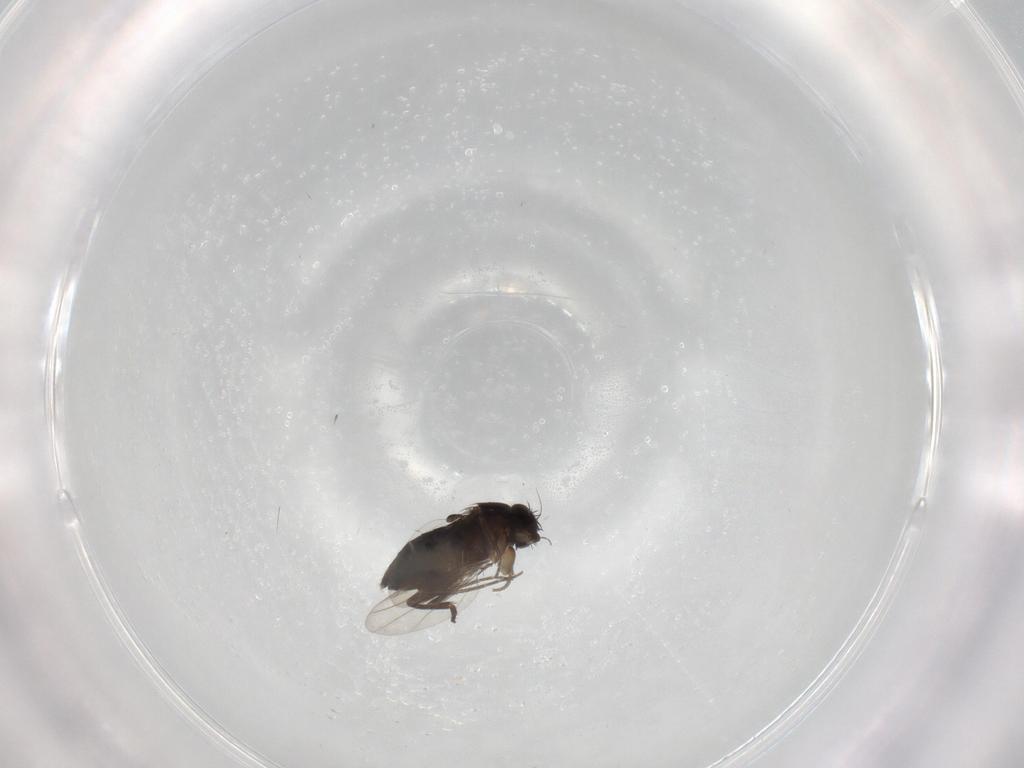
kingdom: Animalia
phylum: Arthropoda
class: Insecta
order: Diptera
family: Phoridae
